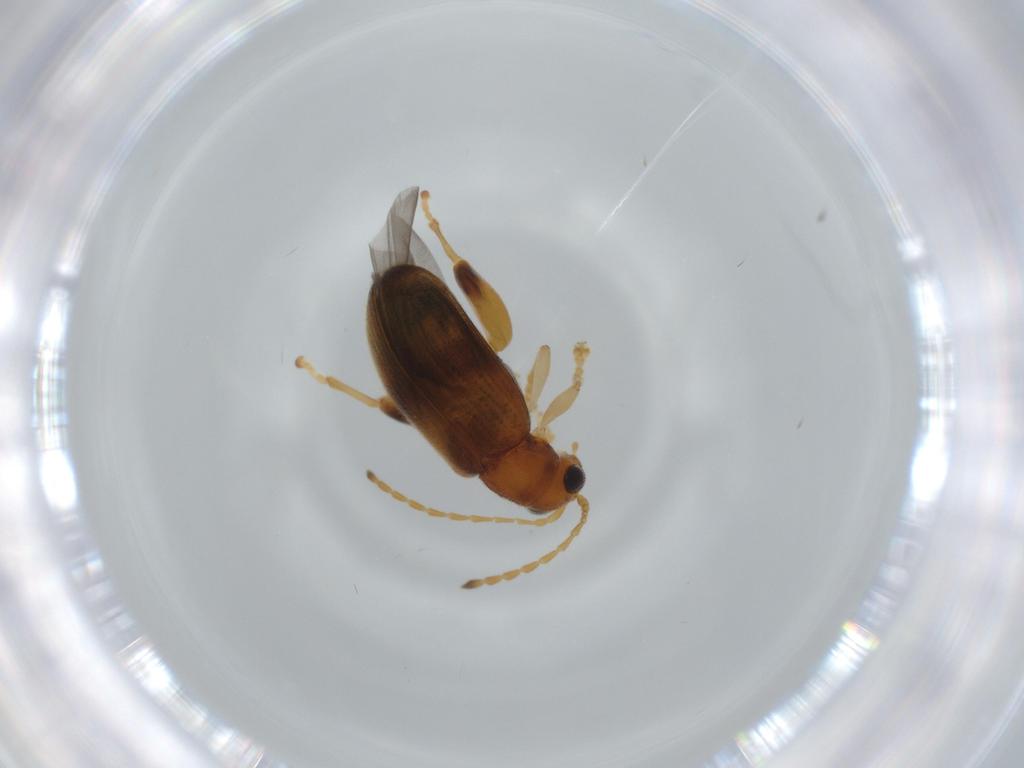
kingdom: Animalia
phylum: Arthropoda
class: Insecta
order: Coleoptera
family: Chrysomelidae
